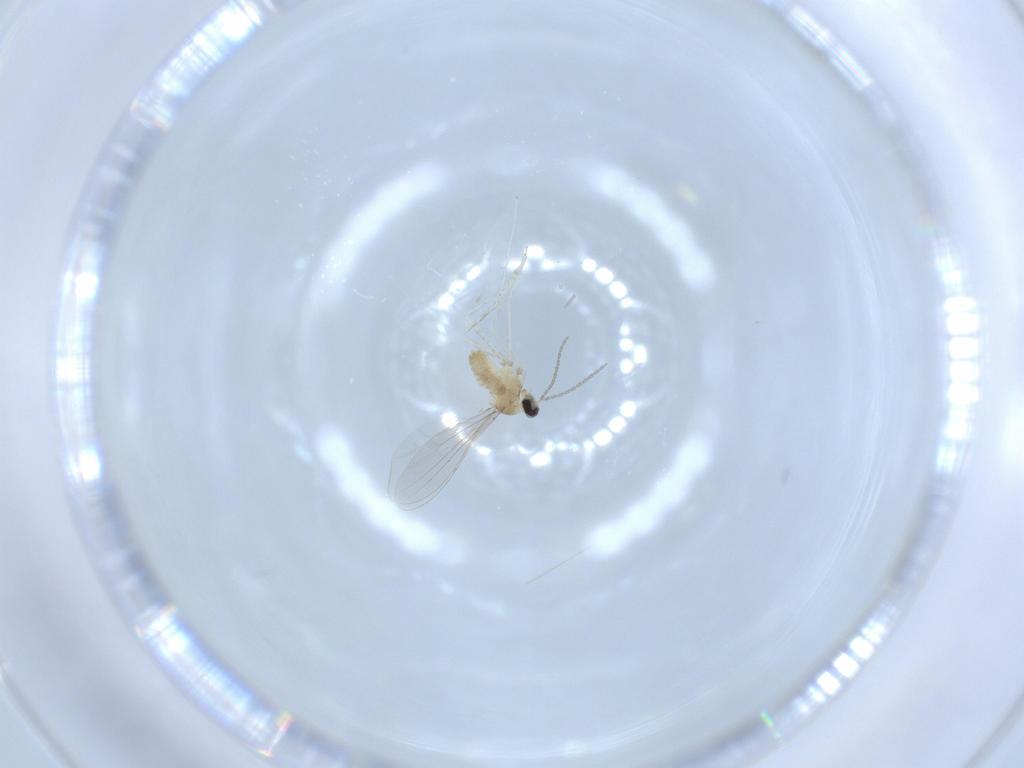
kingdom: Animalia
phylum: Arthropoda
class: Insecta
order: Diptera
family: Cecidomyiidae
